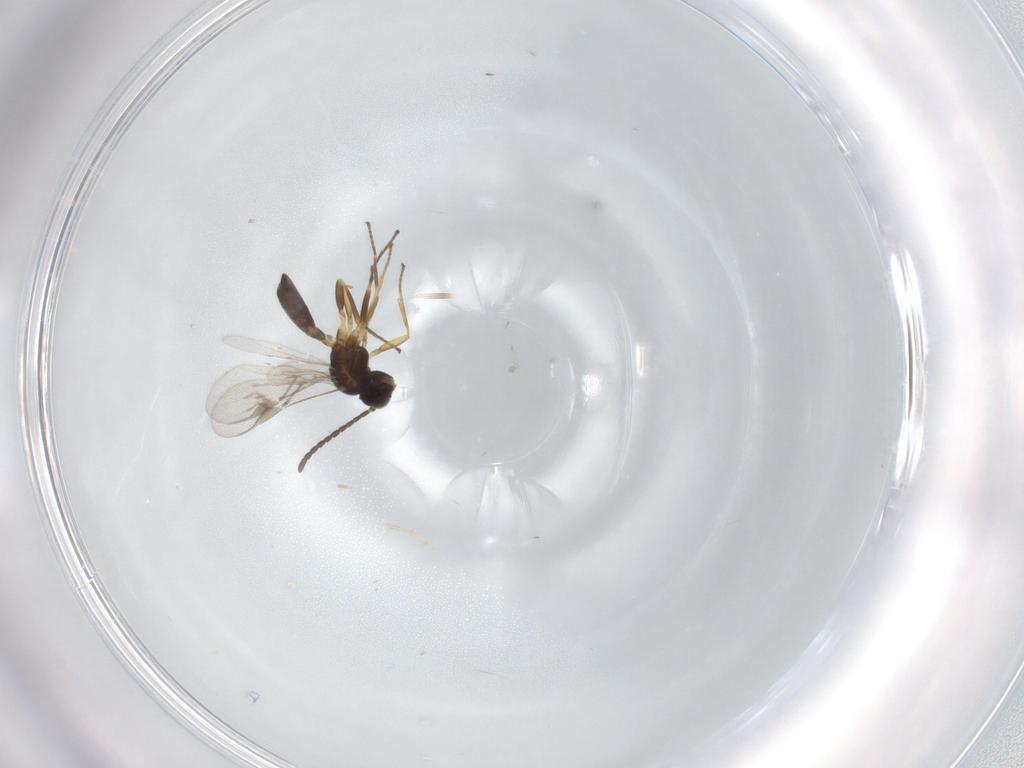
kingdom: Animalia
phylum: Arthropoda
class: Insecta
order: Hymenoptera
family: Braconidae
